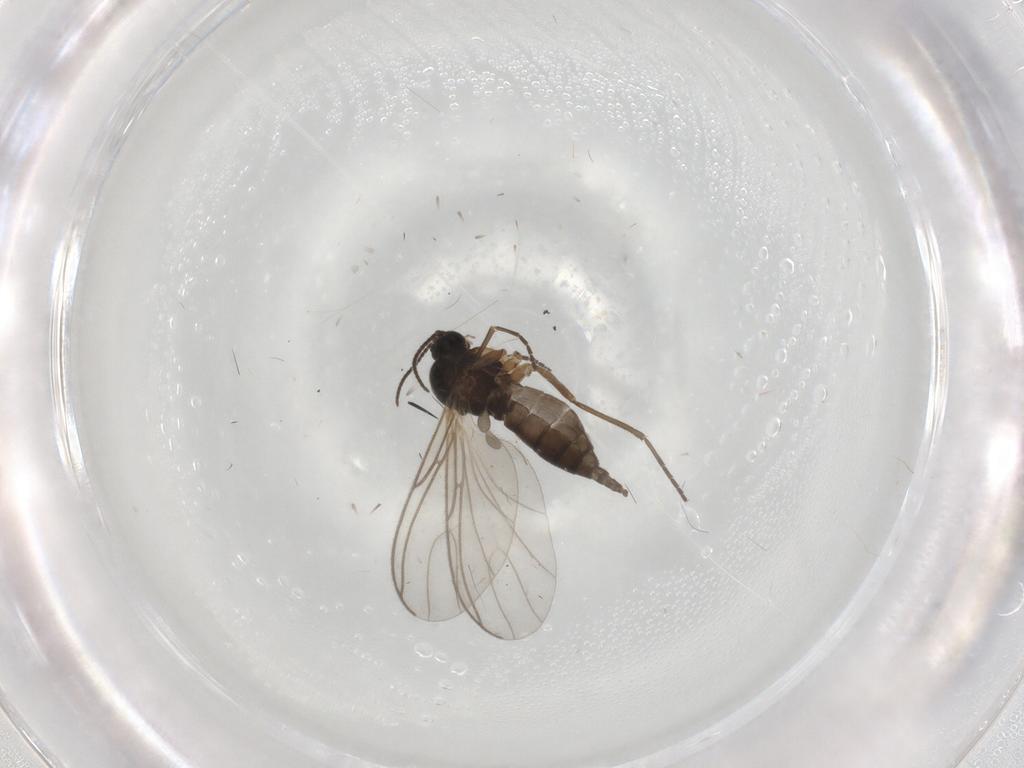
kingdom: Animalia
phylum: Arthropoda
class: Insecta
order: Diptera
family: Sciaridae
